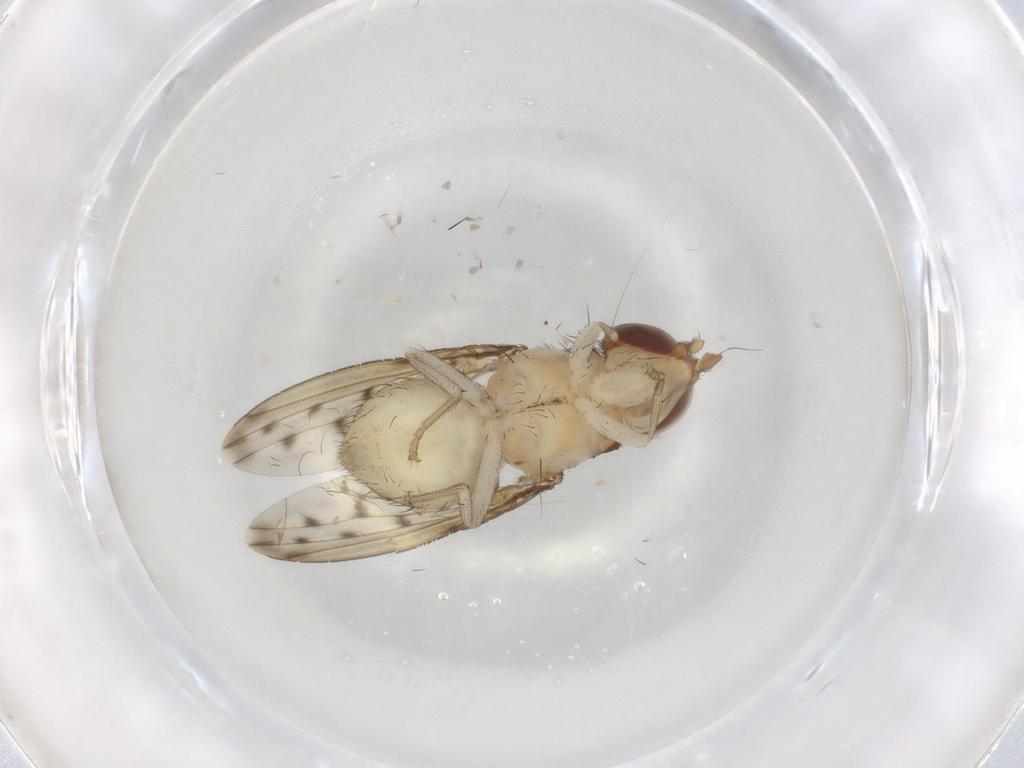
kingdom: Animalia
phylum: Arthropoda
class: Insecta
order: Diptera
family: Lauxaniidae
